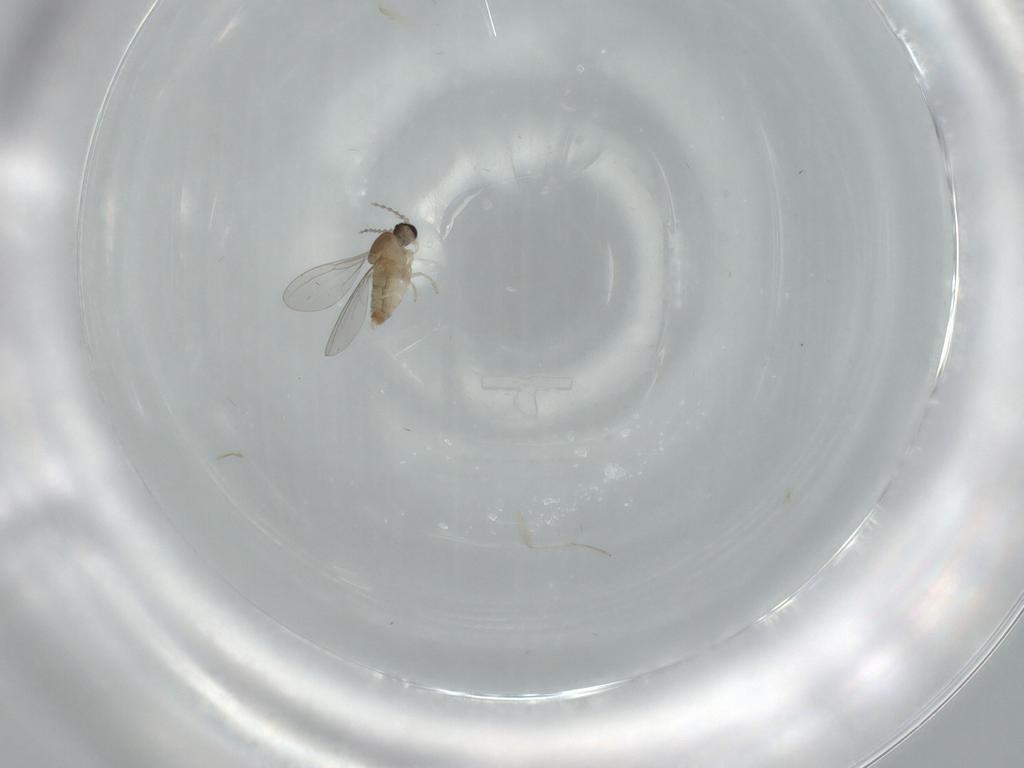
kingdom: Animalia
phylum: Arthropoda
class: Insecta
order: Diptera
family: Cecidomyiidae
